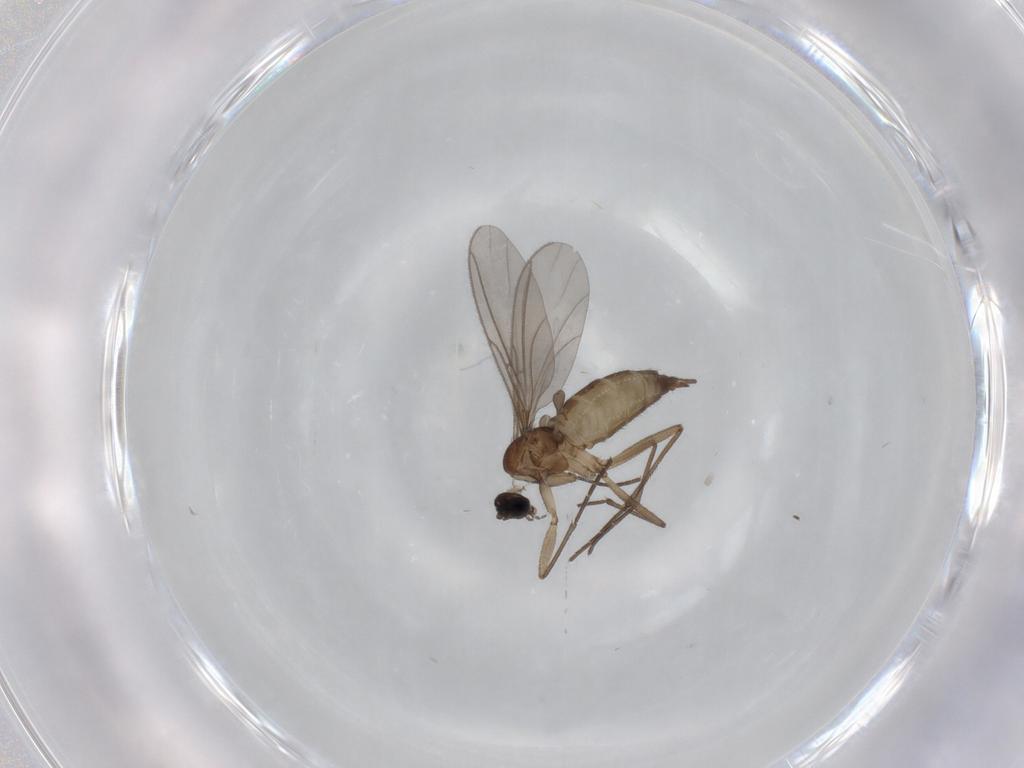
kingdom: Animalia
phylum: Arthropoda
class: Insecta
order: Diptera
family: Sciaridae
